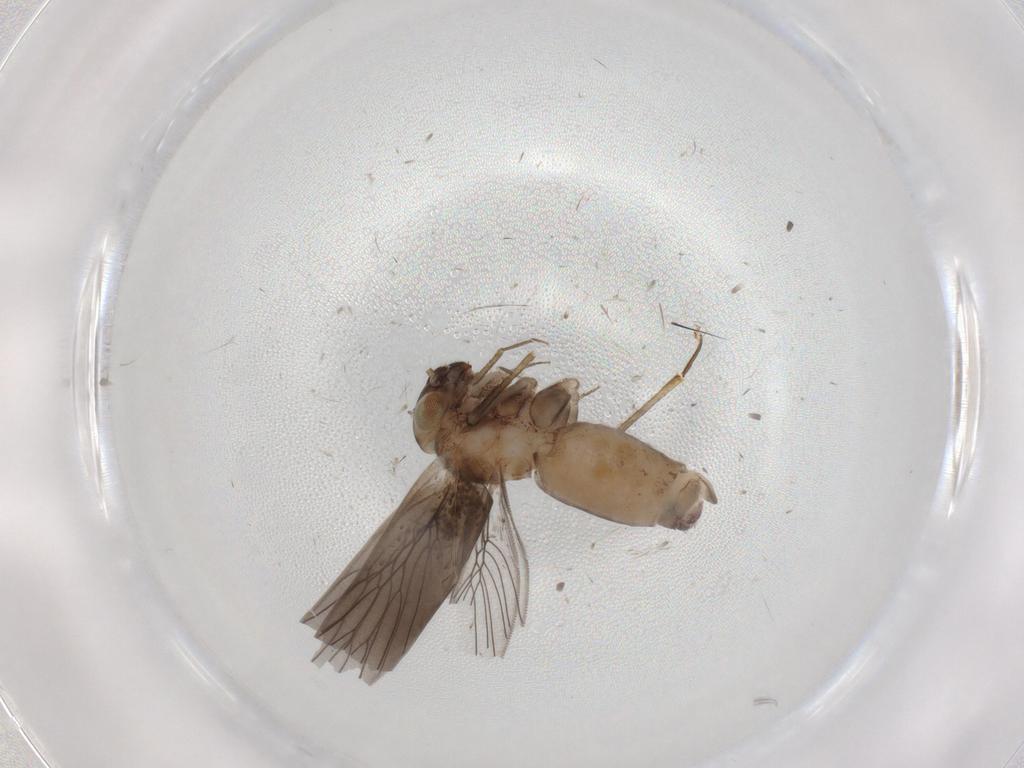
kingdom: Animalia
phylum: Arthropoda
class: Insecta
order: Psocodea
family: Lepidopsocidae
